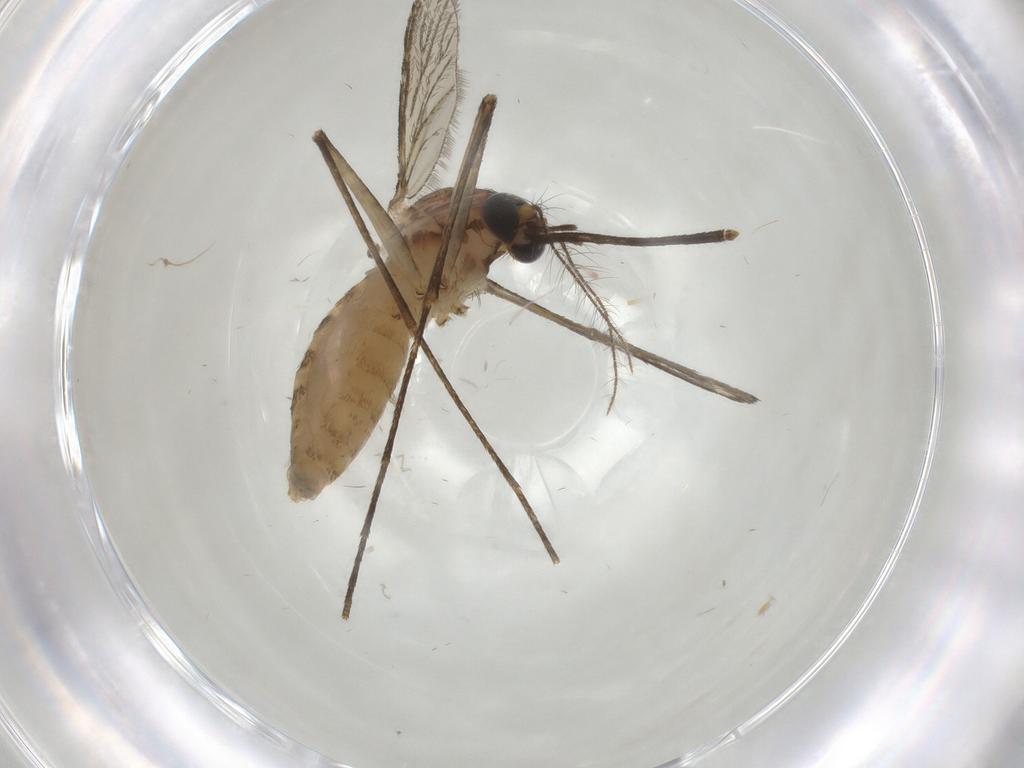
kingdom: Animalia
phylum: Arthropoda
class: Insecta
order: Diptera
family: Culicidae
